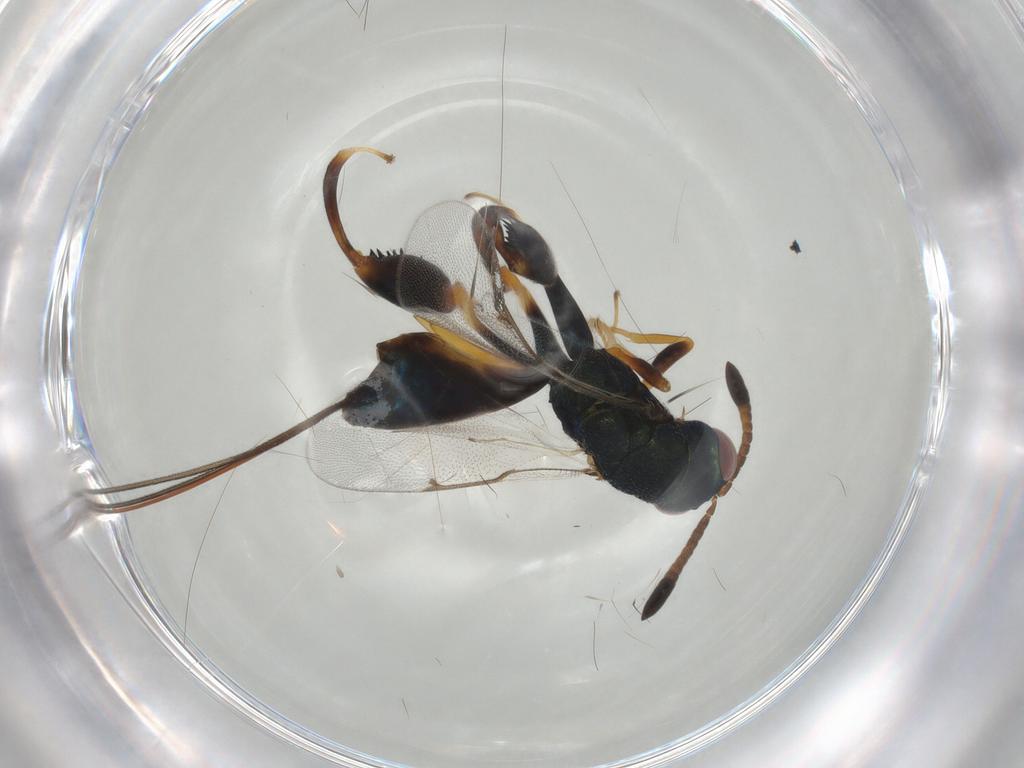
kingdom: Animalia
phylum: Arthropoda
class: Insecta
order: Hymenoptera
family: Torymidae
